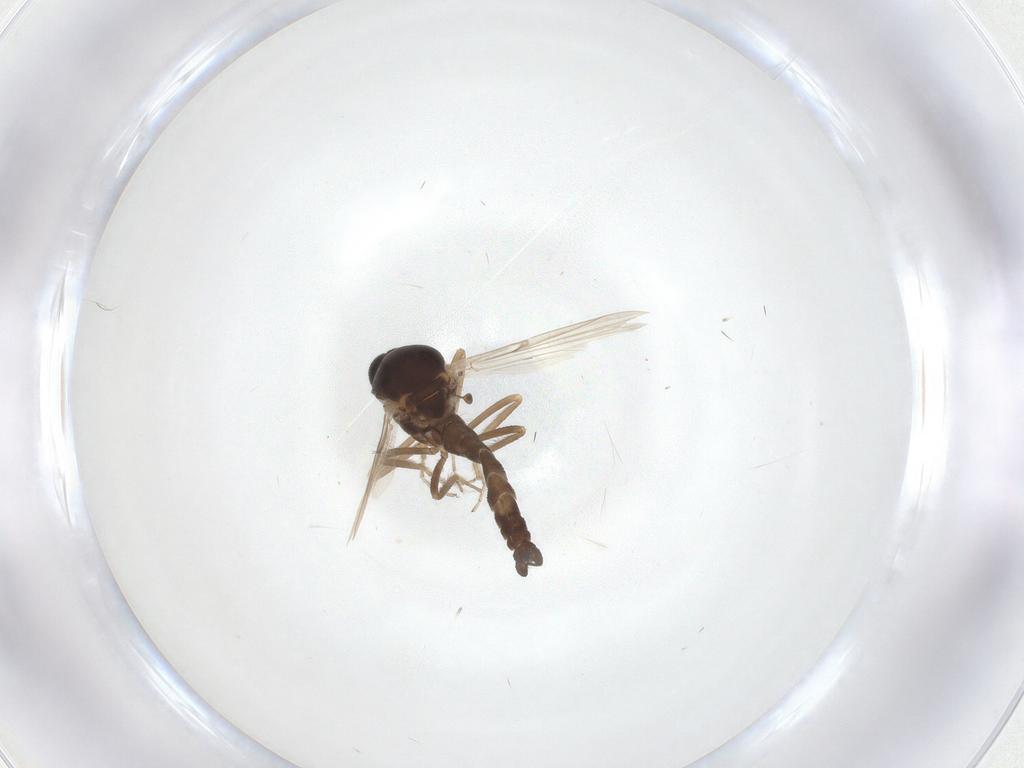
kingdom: Animalia
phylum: Arthropoda
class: Insecta
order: Diptera
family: Ceratopogonidae
